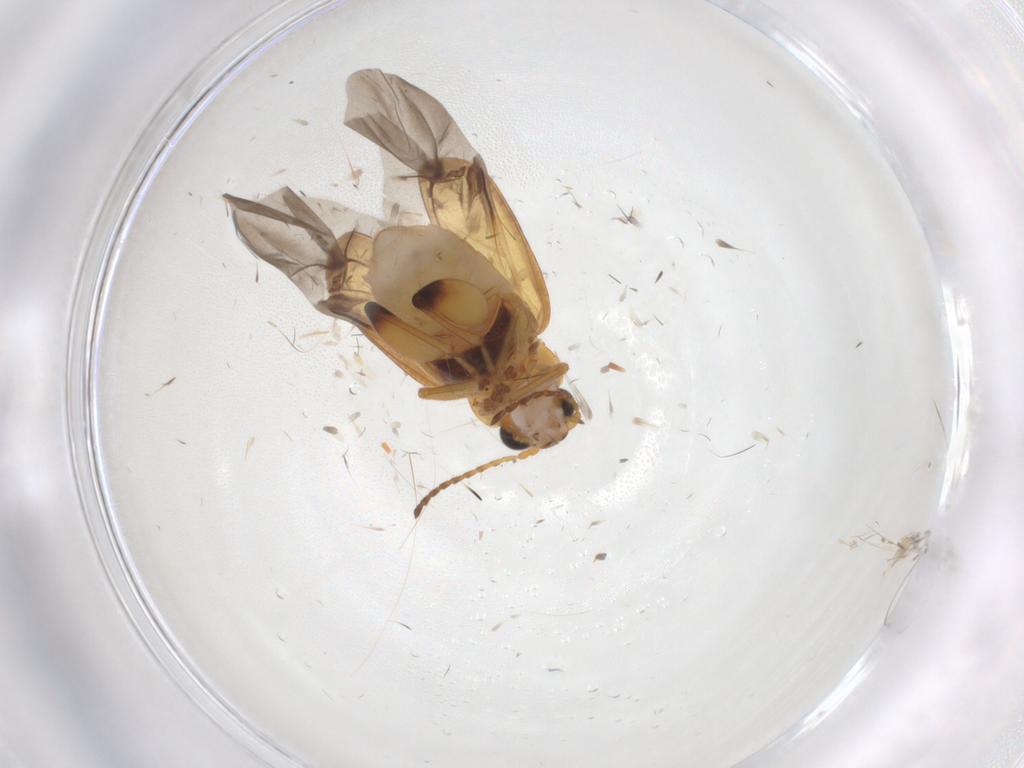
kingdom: Animalia
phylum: Arthropoda
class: Insecta
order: Coleoptera
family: Chrysomelidae
